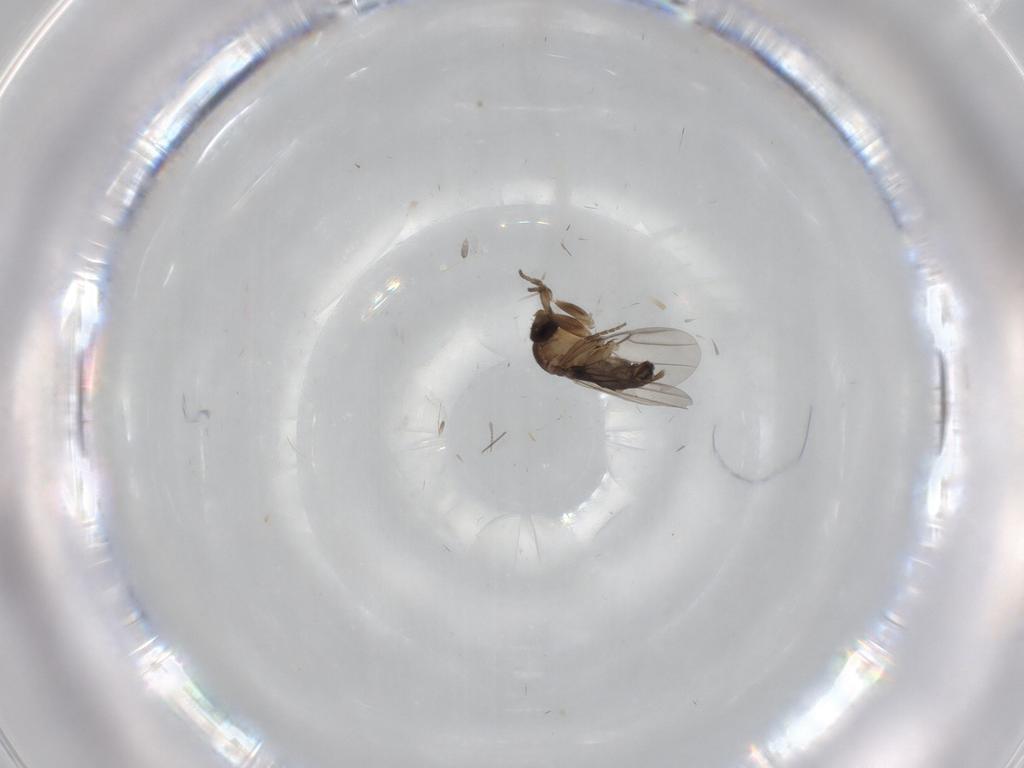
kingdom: Animalia
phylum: Arthropoda
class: Insecta
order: Diptera
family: Phoridae
